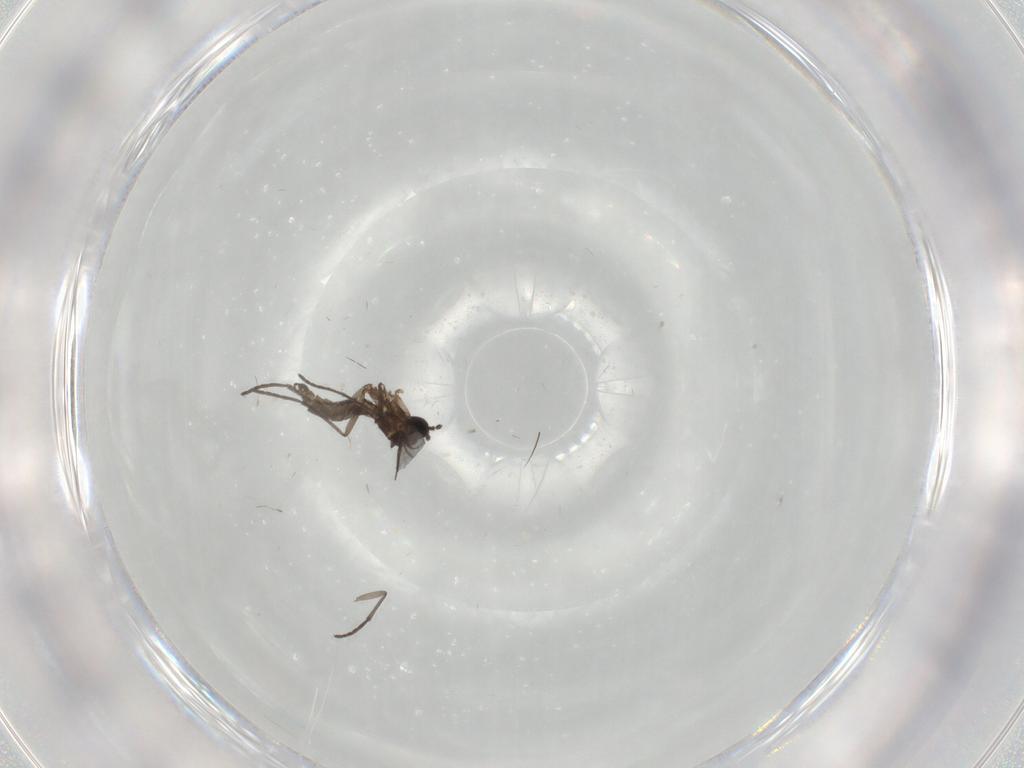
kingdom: Animalia
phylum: Arthropoda
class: Insecta
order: Diptera
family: Sciaridae
